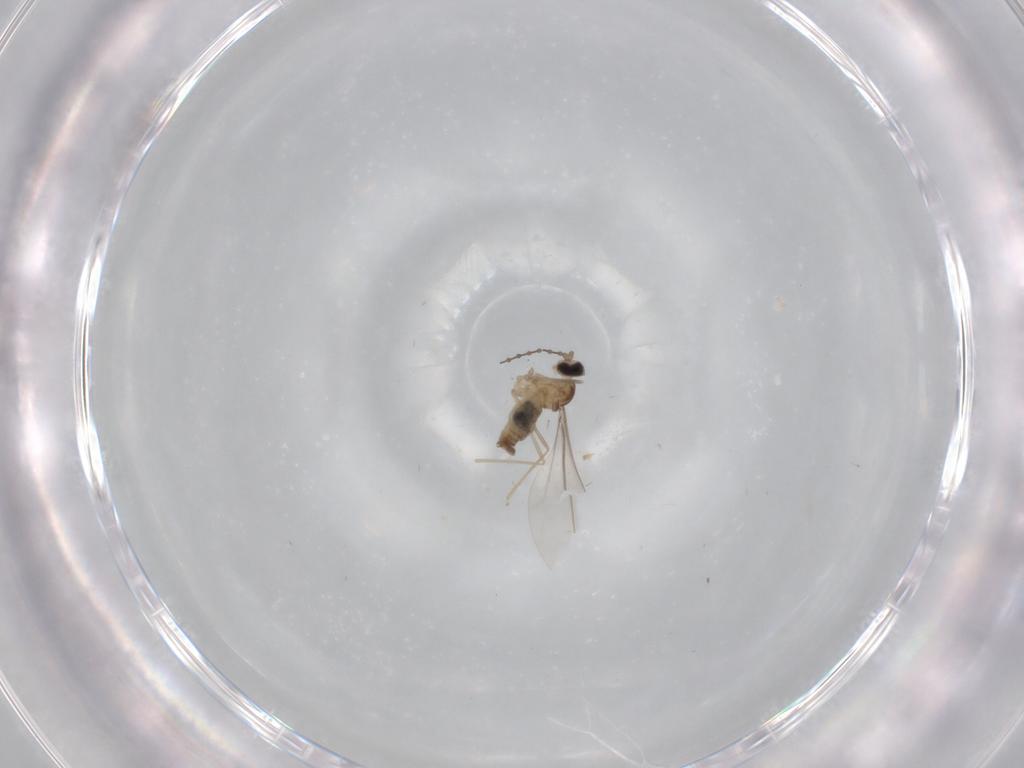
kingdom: Animalia
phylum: Arthropoda
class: Insecta
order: Diptera
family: Cecidomyiidae
